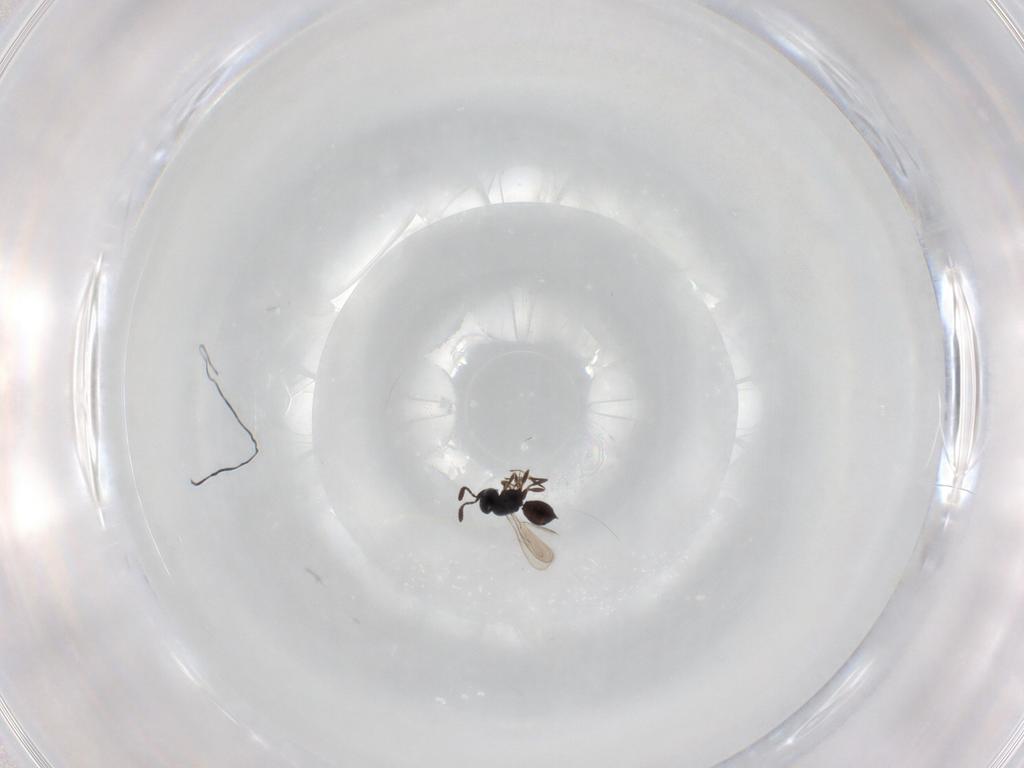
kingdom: Animalia
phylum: Arthropoda
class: Insecta
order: Hymenoptera
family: Scelionidae
